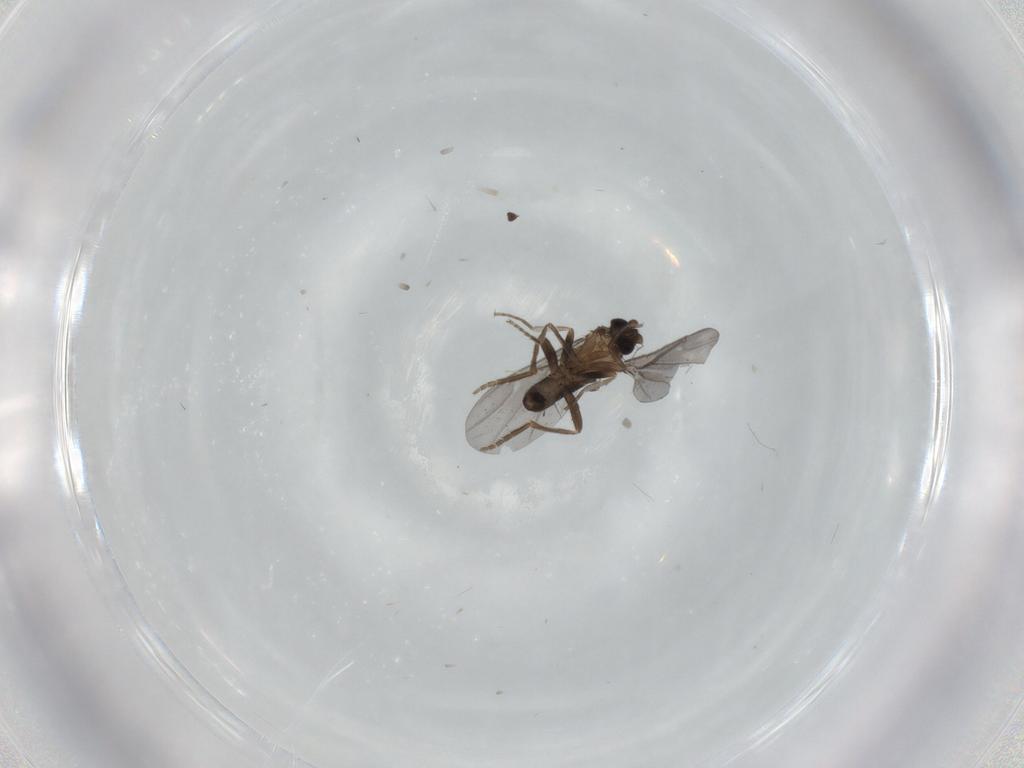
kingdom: Animalia
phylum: Arthropoda
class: Insecta
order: Diptera
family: Phoridae
